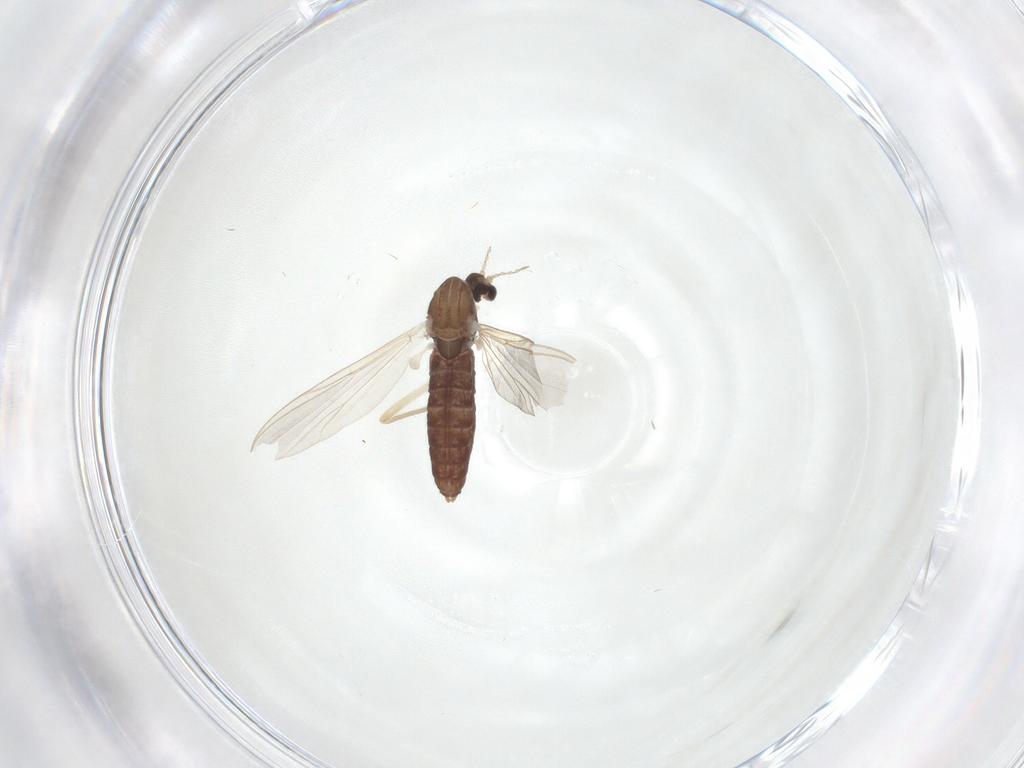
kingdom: Animalia
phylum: Arthropoda
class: Insecta
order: Diptera
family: Chironomidae
